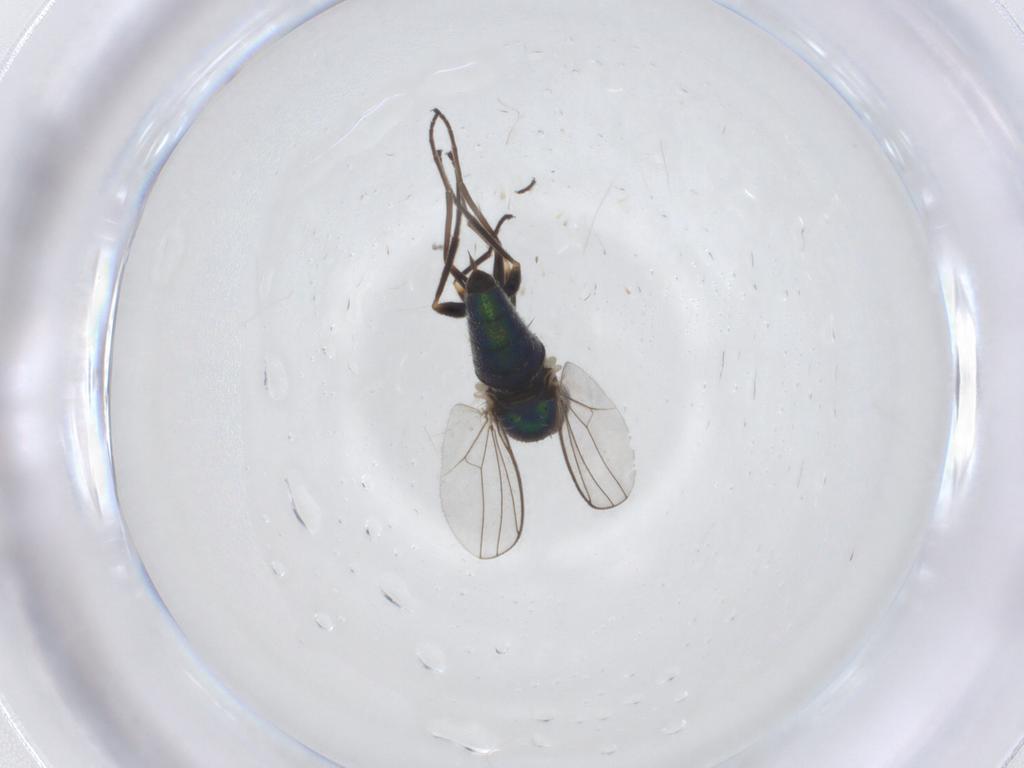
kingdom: Animalia
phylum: Arthropoda
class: Insecta
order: Diptera
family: Dolichopodidae
